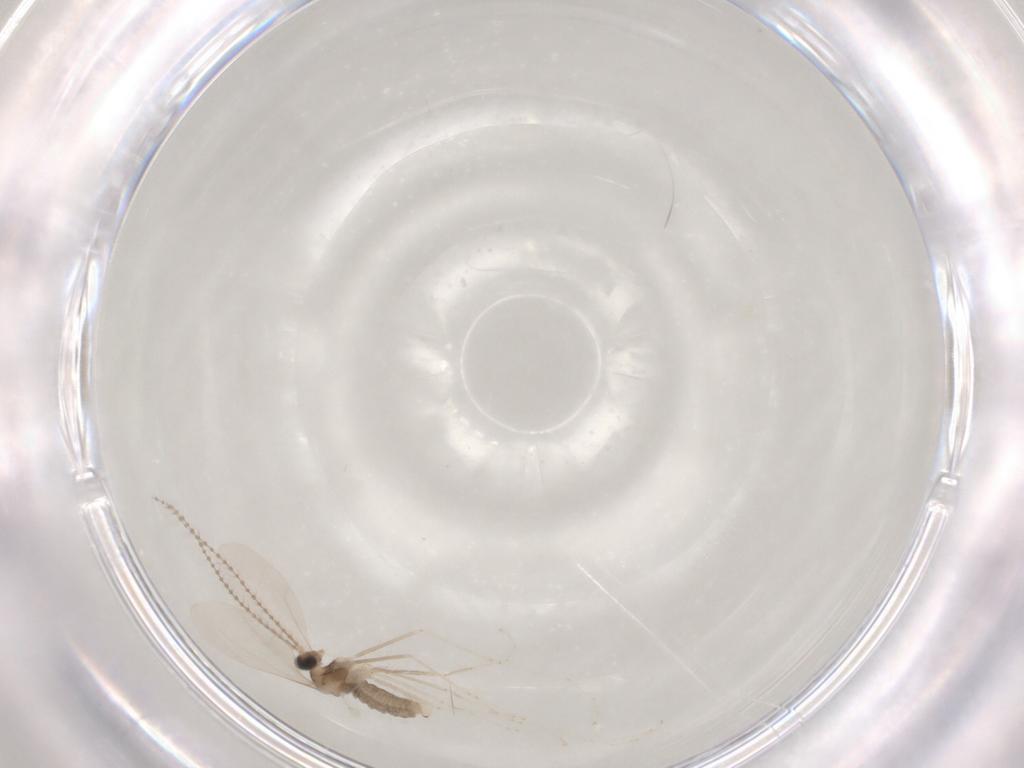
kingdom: Animalia
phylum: Arthropoda
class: Insecta
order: Diptera
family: Cecidomyiidae
